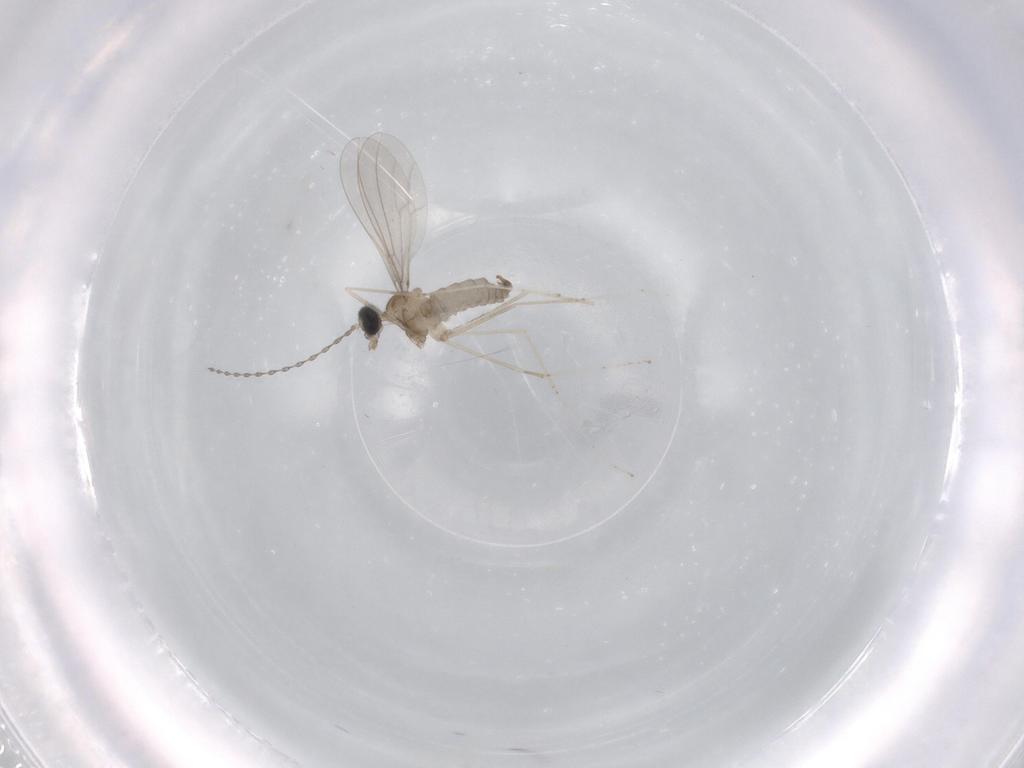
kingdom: Animalia
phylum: Arthropoda
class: Insecta
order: Diptera
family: Cecidomyiidae
